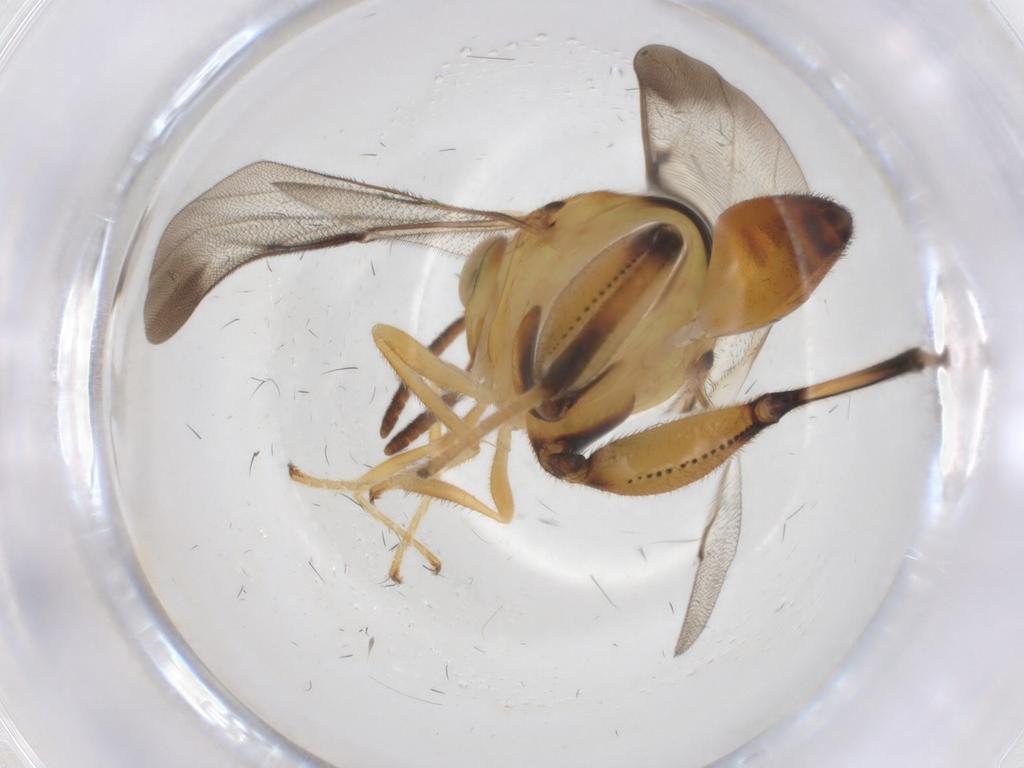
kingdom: Animalia
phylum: Arthropoda
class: Insecta
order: Hymenoptera
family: Chalcididae
